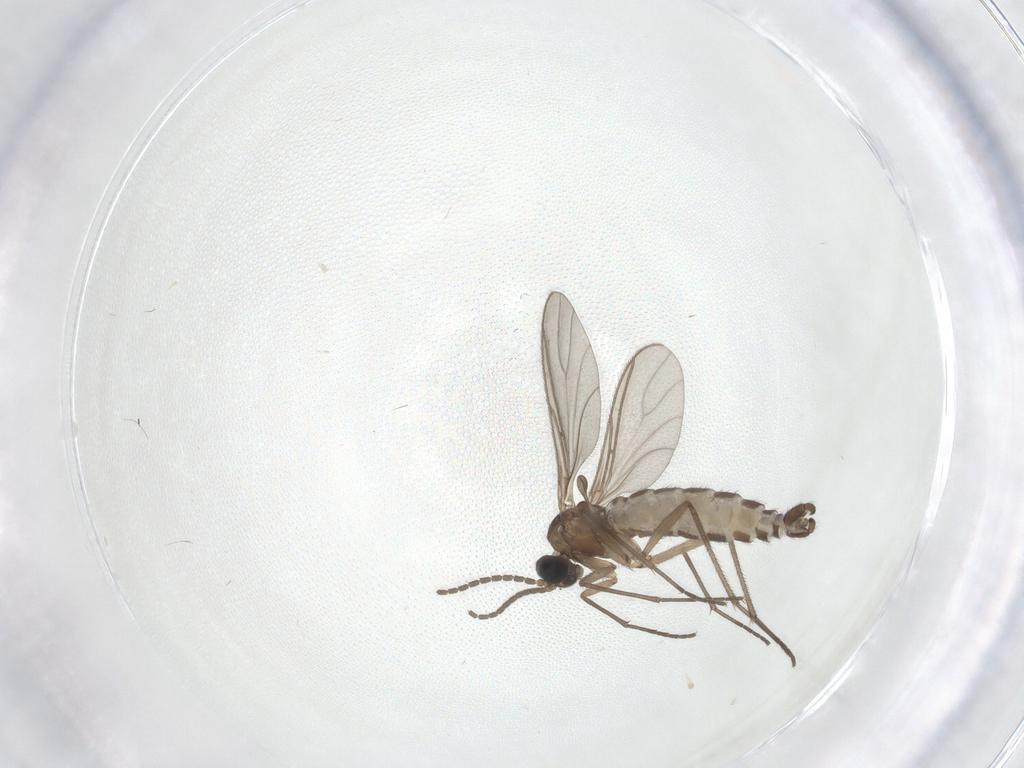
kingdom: Animalia
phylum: Arthropoda
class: Insecta
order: Diptera
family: Sciaridae
